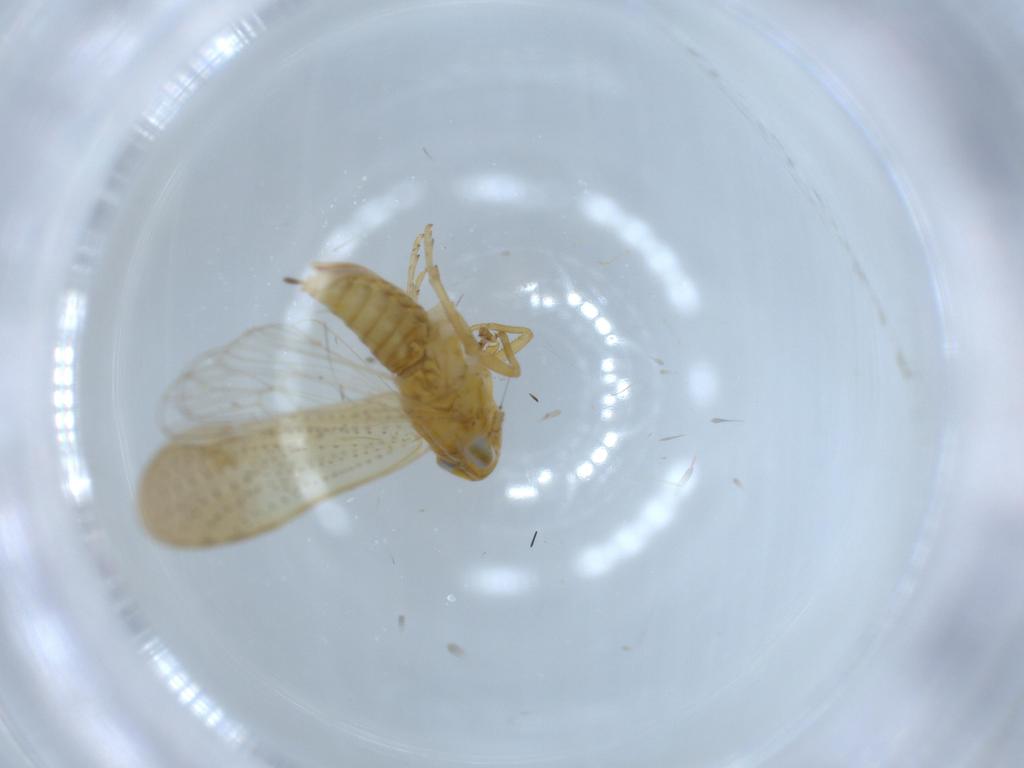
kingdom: Animalia
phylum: Arthropoda
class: Insecta
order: Hemiptera
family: Delphacidae
